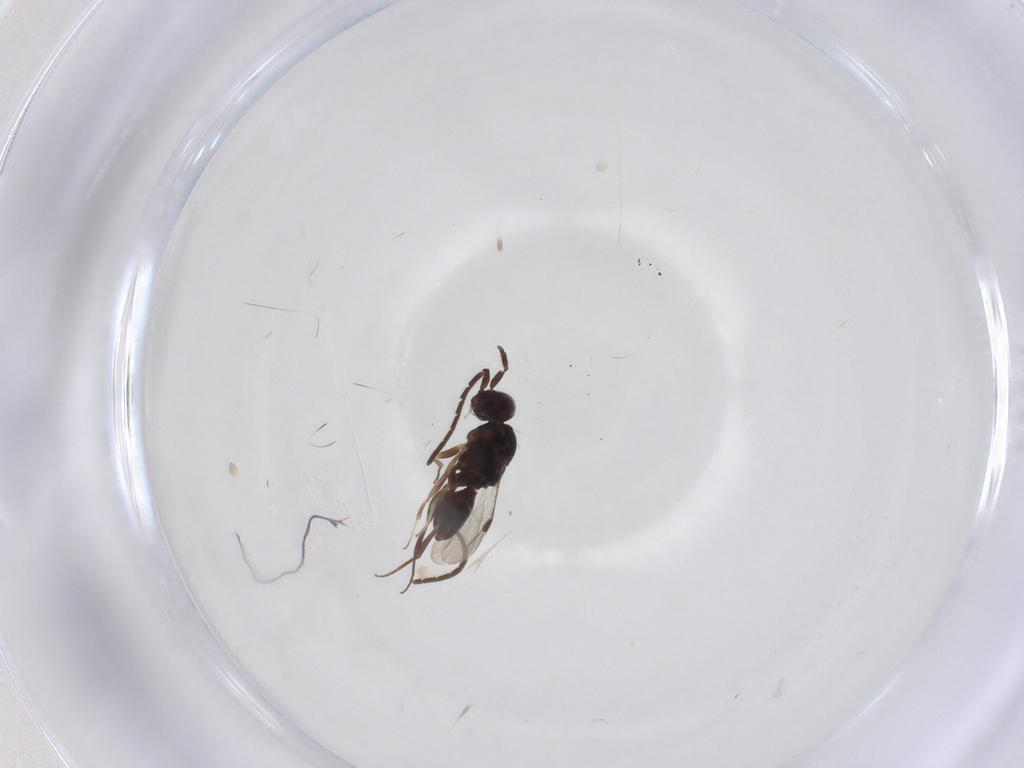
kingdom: Animalia
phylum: Arthropoda
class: Insecta
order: Hymenoptera
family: Megaspilidae
